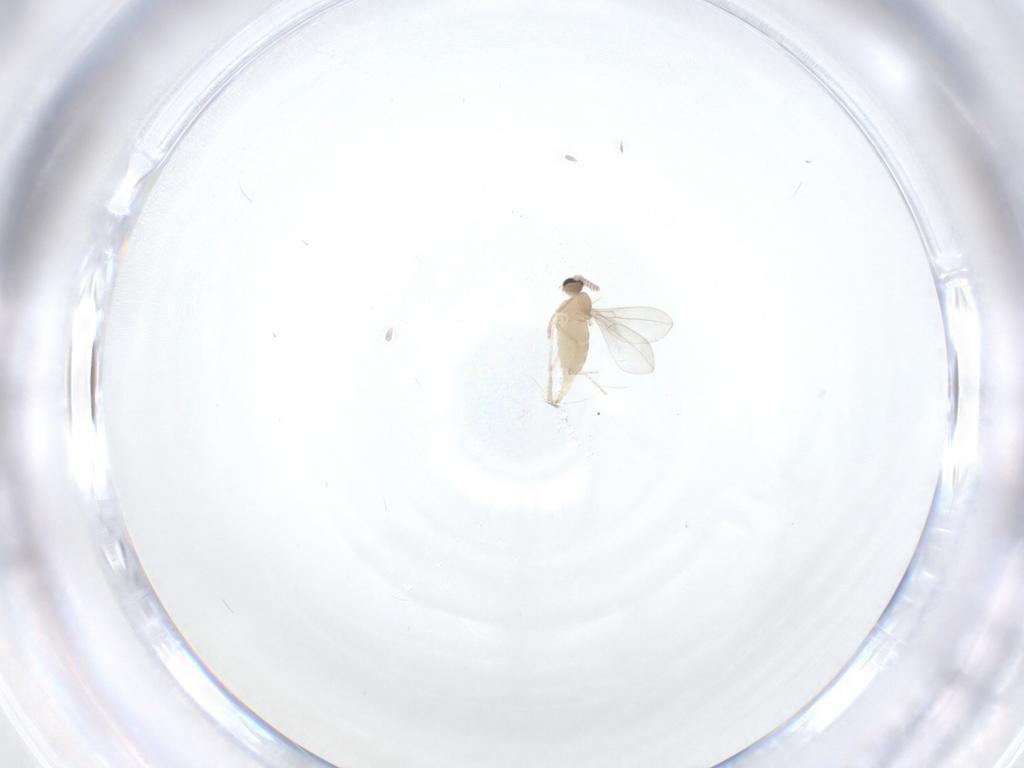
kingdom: Animalia
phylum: Arthropoda
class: Insecta
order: Diptera
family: Cecidomyiidae
